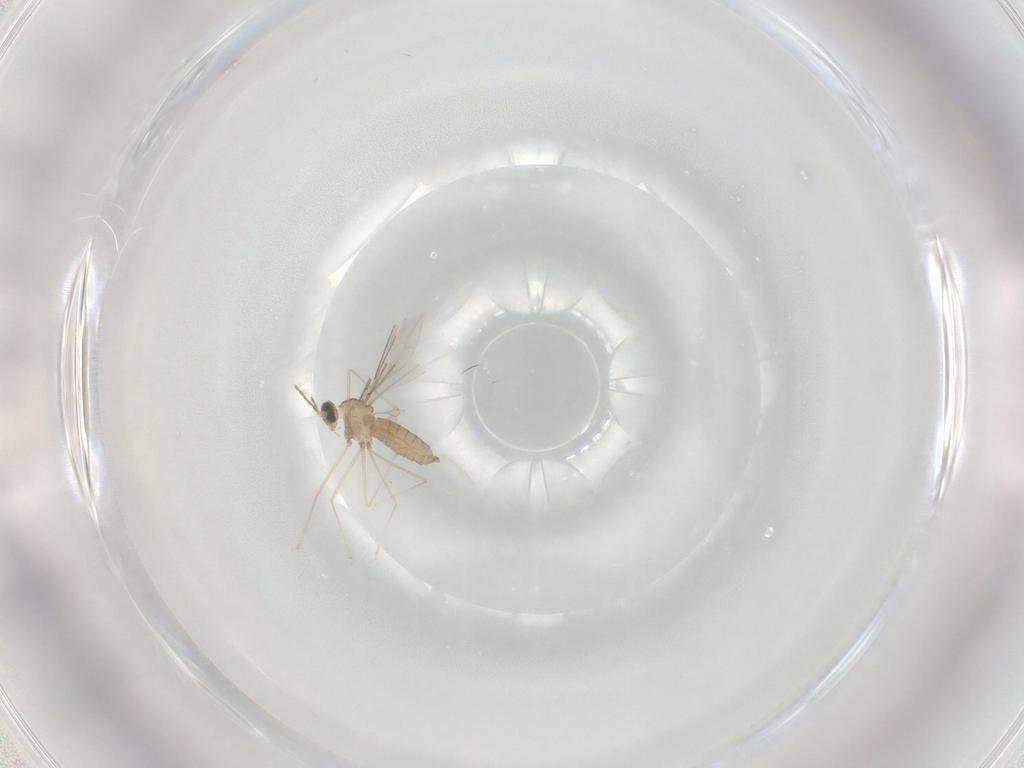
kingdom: Animalia
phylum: Arthropoda
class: Insecta
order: Diptera
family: Cecidomyiidae
